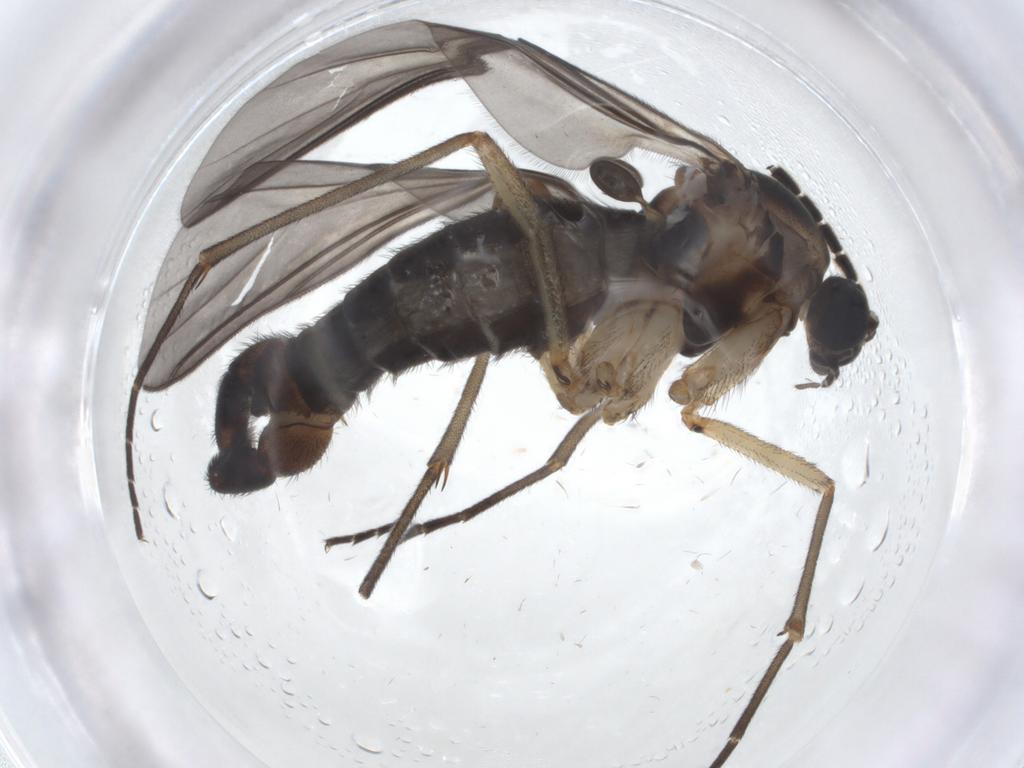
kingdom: Animalia
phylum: Arthropoda
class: Insecta
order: Diptera
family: Sciaridae
